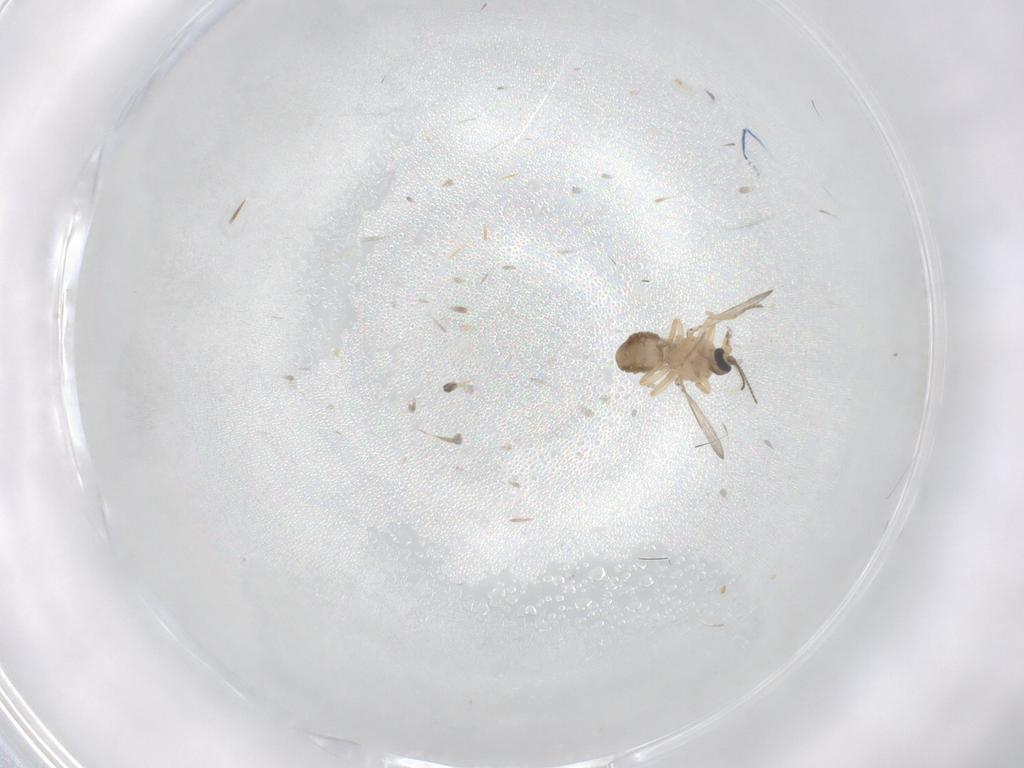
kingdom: Animalia
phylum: Arthropoda
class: Insecta
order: Diptera
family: Ceratopogonidae
